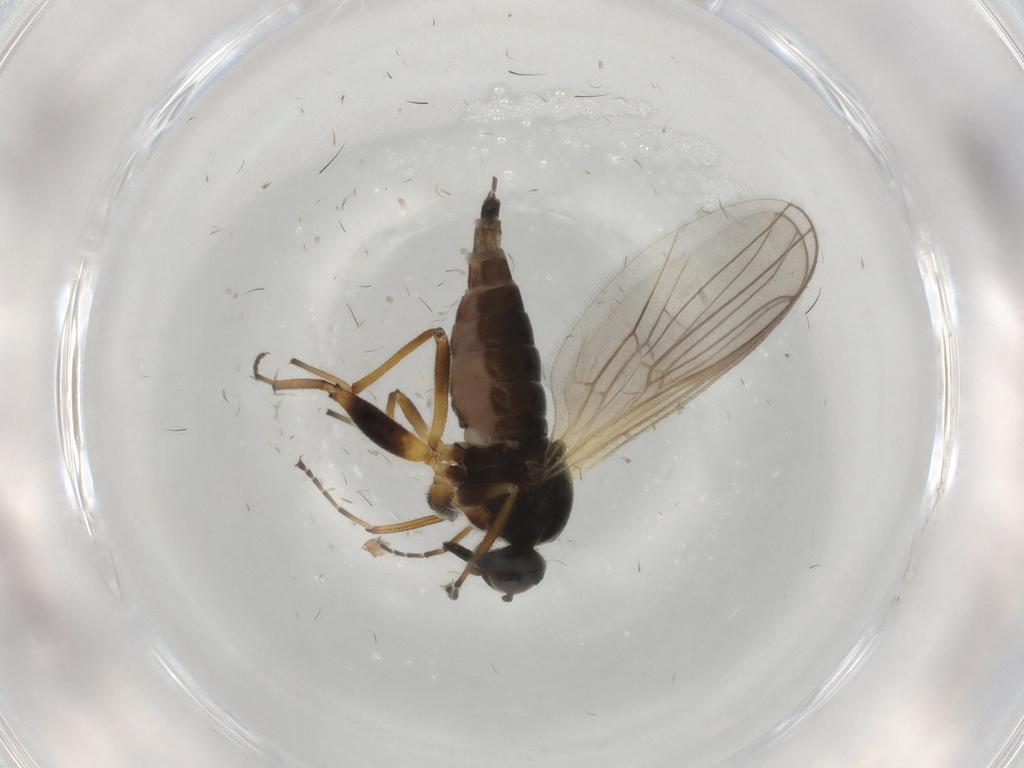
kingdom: Animalia
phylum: Arthropoda
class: Insecta
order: Diptera
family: Hybotidae
